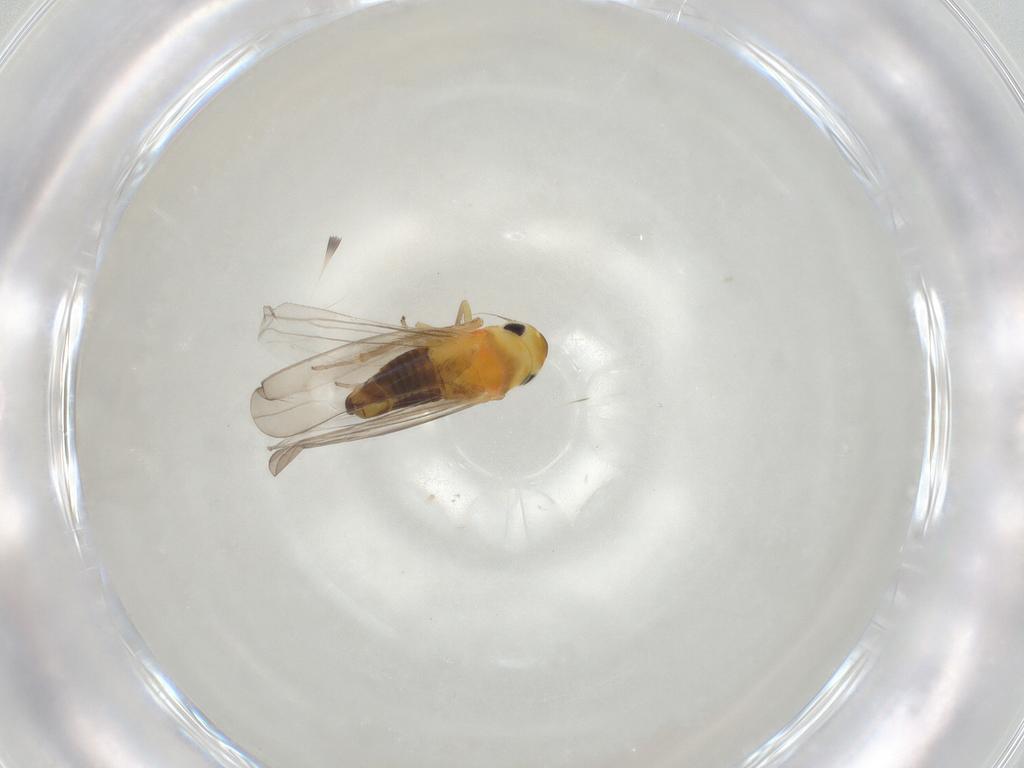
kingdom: Animalia
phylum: Arthropoda
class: Insecta
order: Hemiptera
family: Cicadellidae
